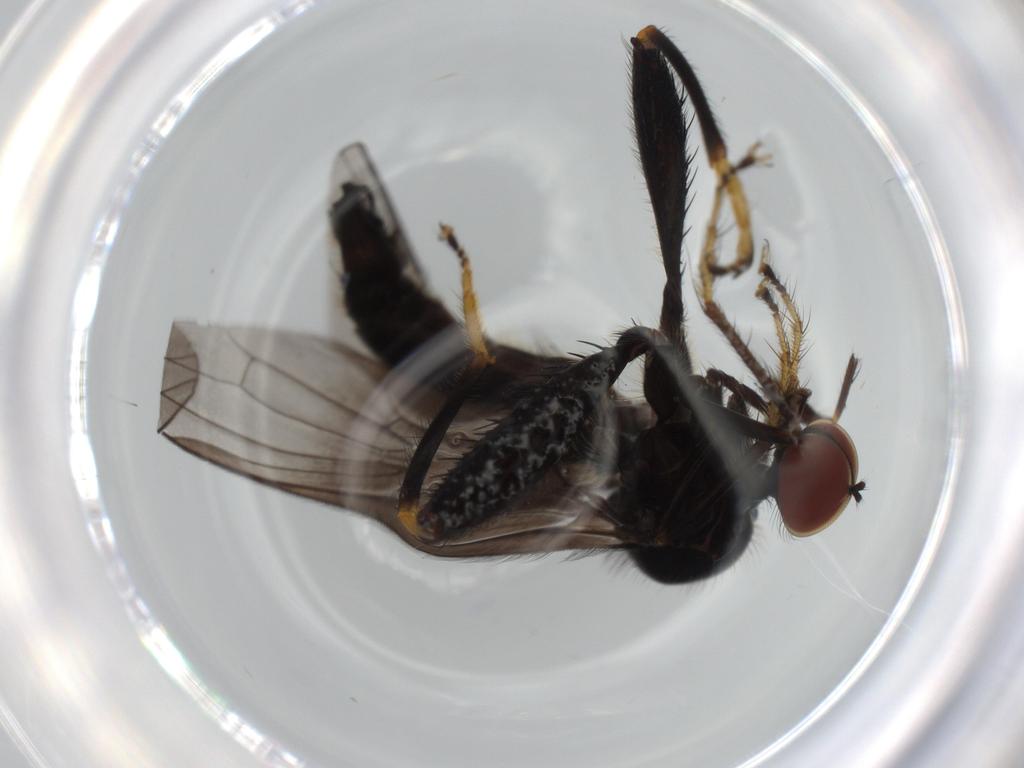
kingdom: Animalia
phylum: Arthropoda
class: Insecta
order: Diptera
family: Hybotidae
